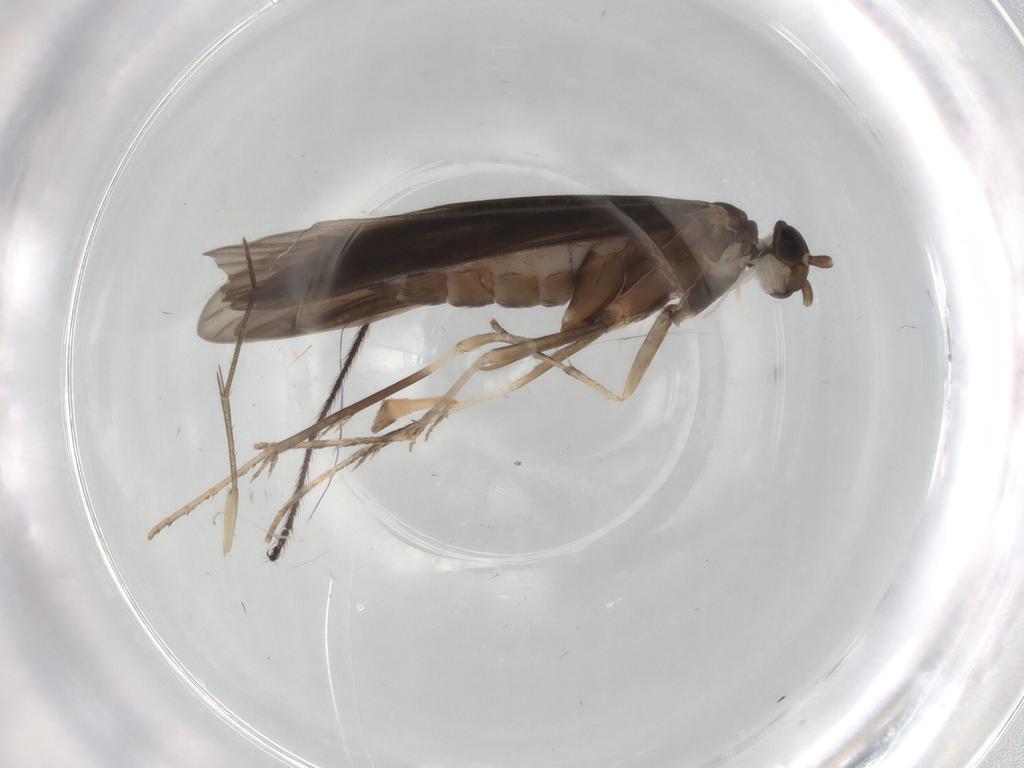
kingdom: Animalia
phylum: Arthropoda
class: Insecta
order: Trichoptera
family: Xiphocentronidae
